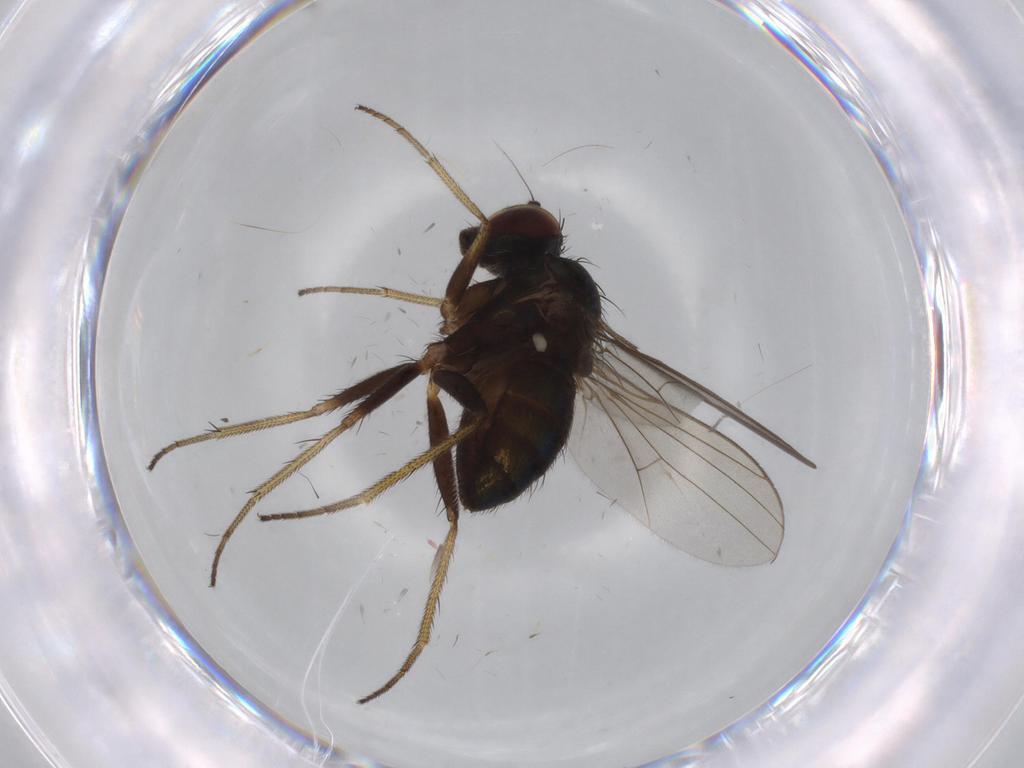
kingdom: Animalia
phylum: Arthropoda
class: Insecta
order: Diptera
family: Dolichopodidae
